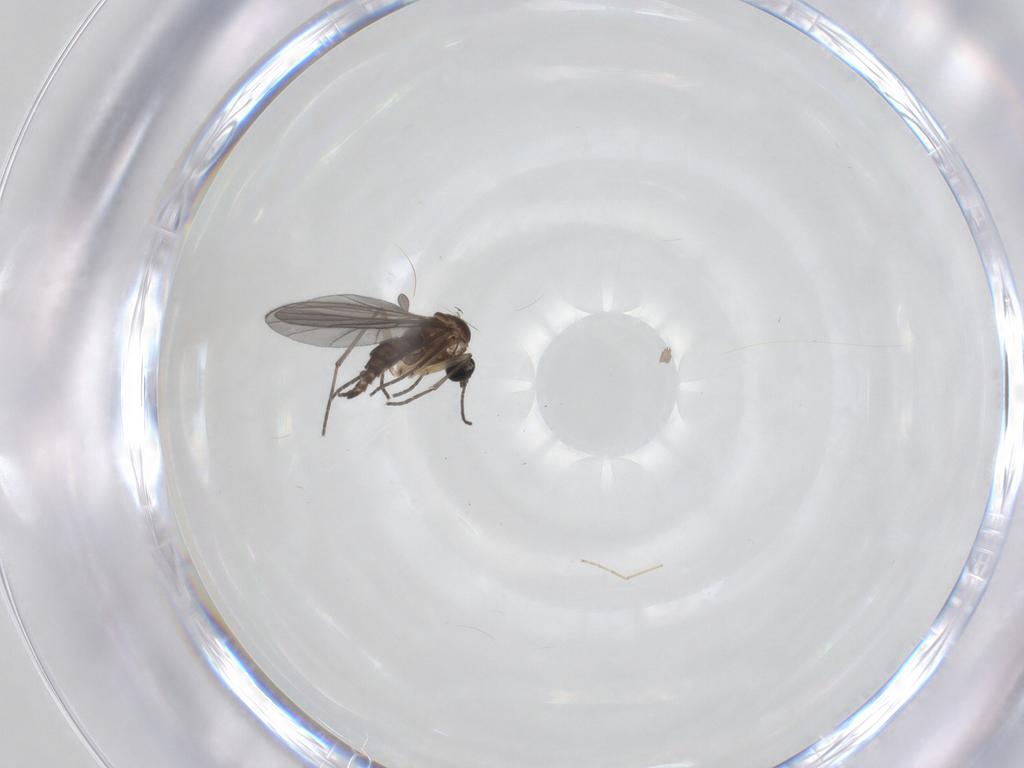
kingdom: Animalia
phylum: Arthropoda
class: Insecta
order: Diptera
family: Sciaridae
